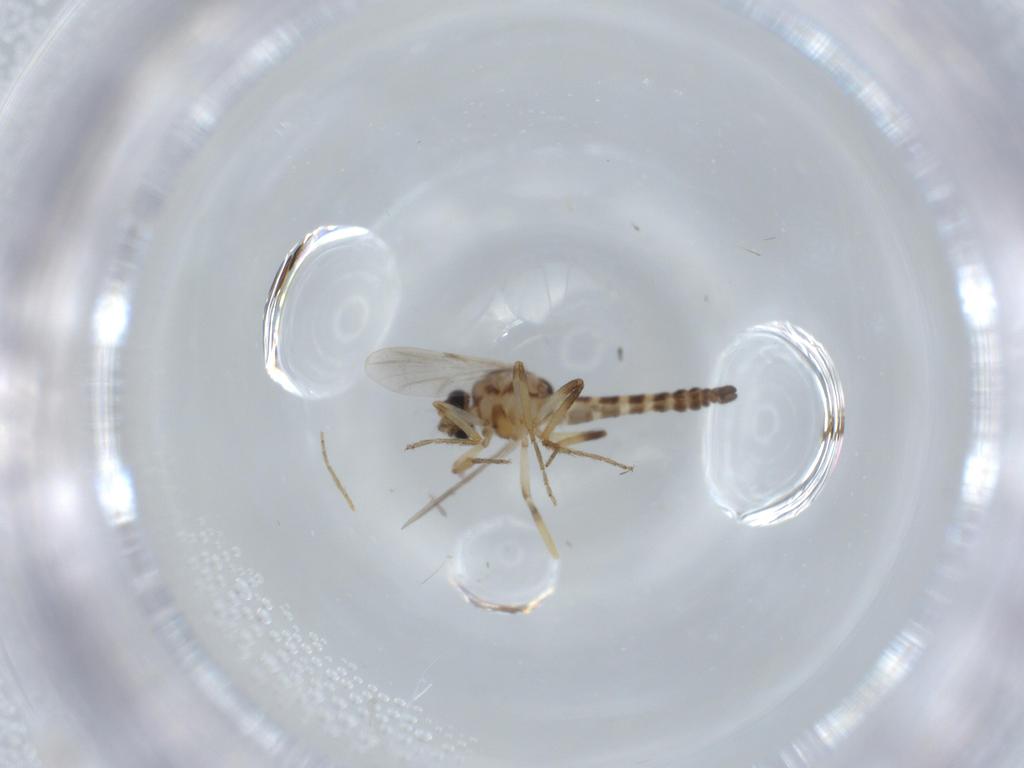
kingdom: Animalia
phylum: Arthropoda
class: Insecta
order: Diptera
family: Ceratopogonidae
